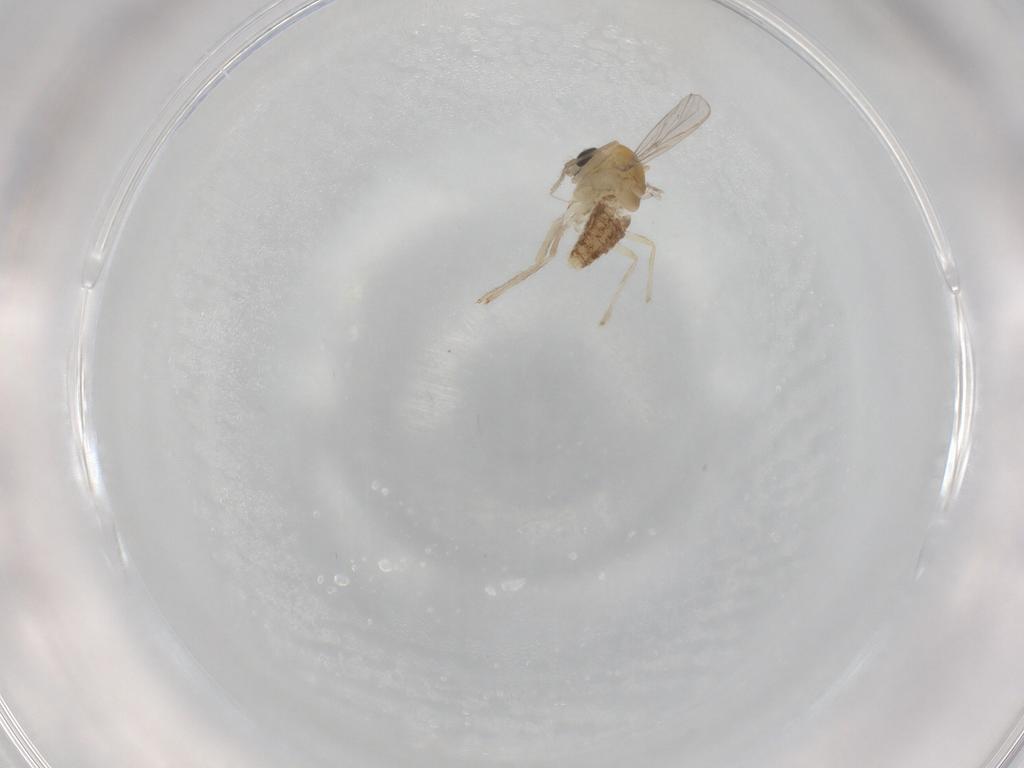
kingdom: Animalia
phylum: Arthropoda
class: Insecta
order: Diptera
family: Chironomidae
